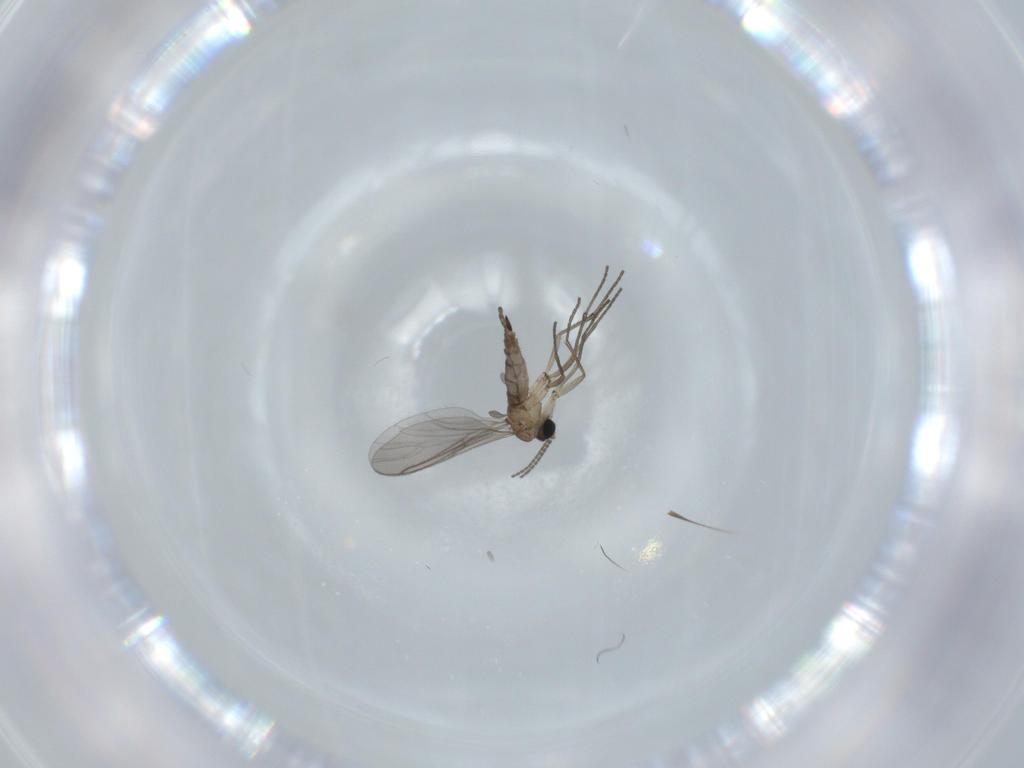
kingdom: Animalia
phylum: Arthropoda
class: Insecta
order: Diptera
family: Sciaridae
